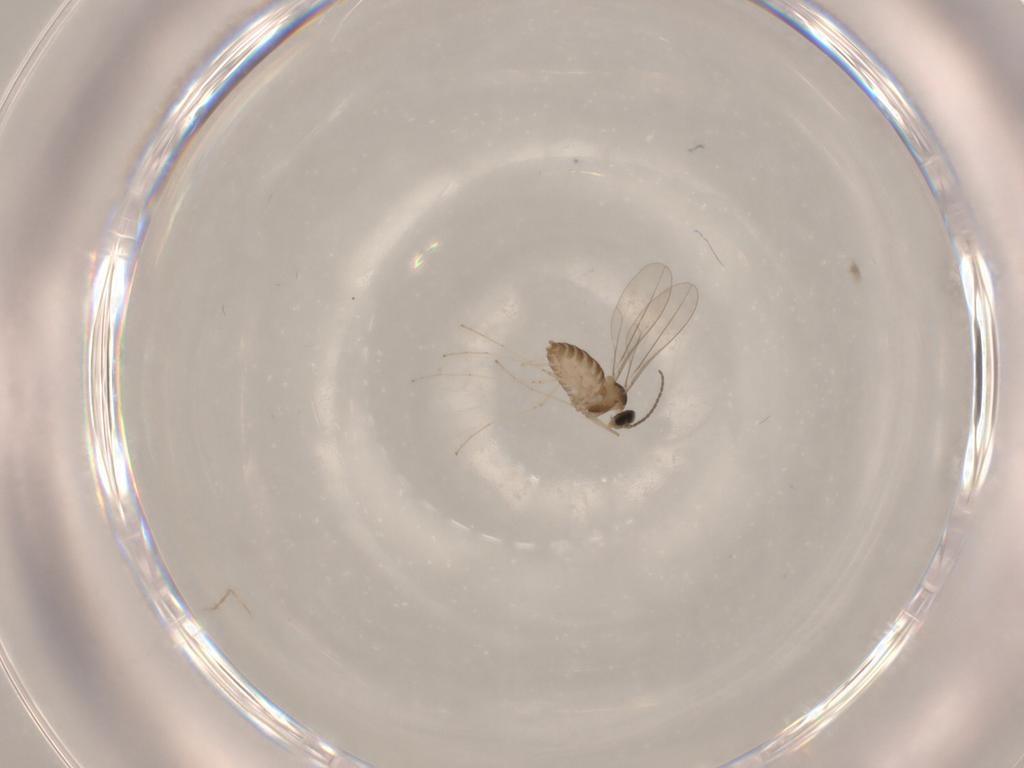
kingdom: Animalia
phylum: Arthropoda
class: Insecta
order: Diptera
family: Cecidomyiidae
